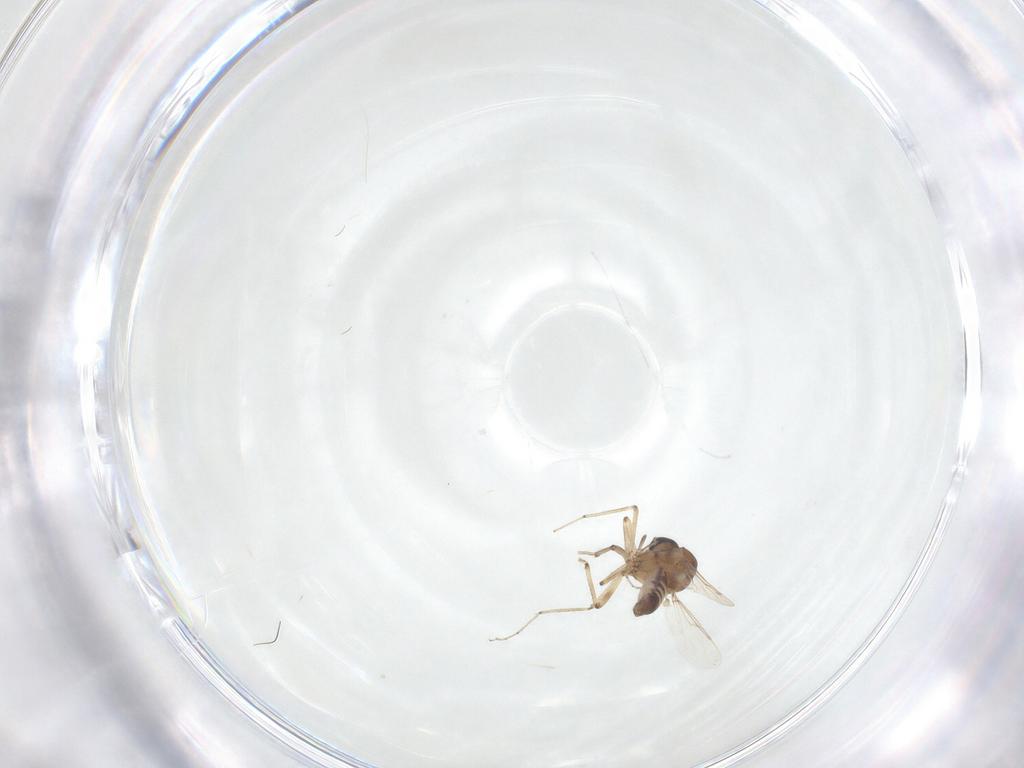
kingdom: Animalia
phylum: Arthropoda
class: Insecta
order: Diptera
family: Ceratopogonidae
